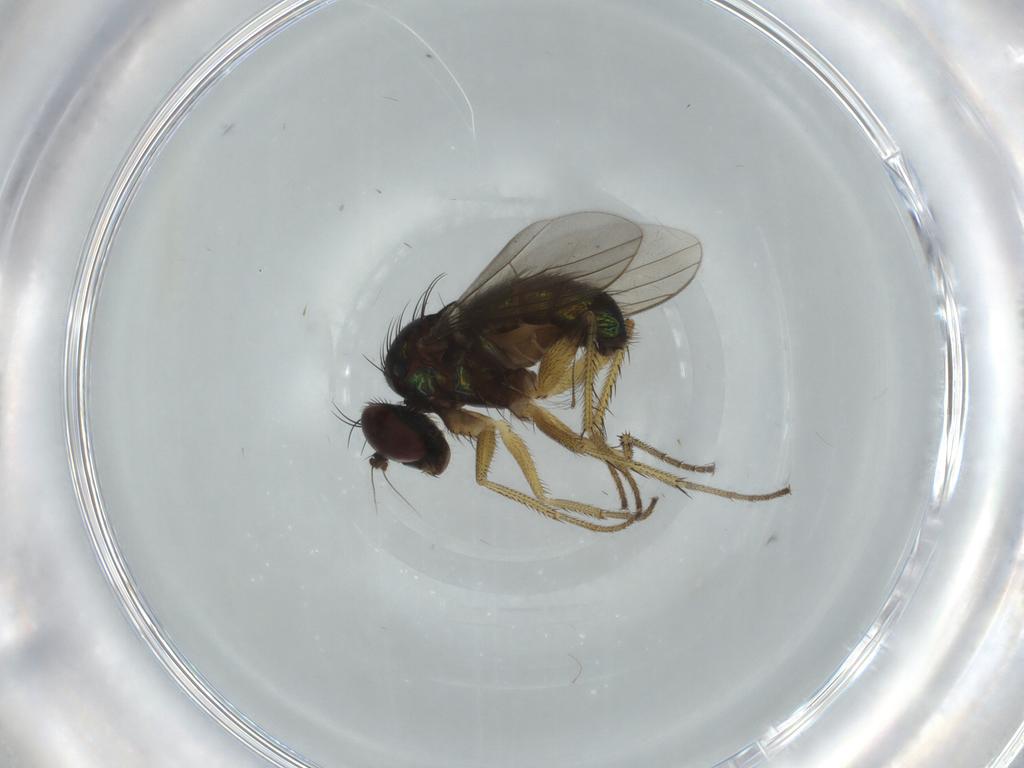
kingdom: Animalia
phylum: Arthropoda
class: Insecta
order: Diptera
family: Dolichopodidae
